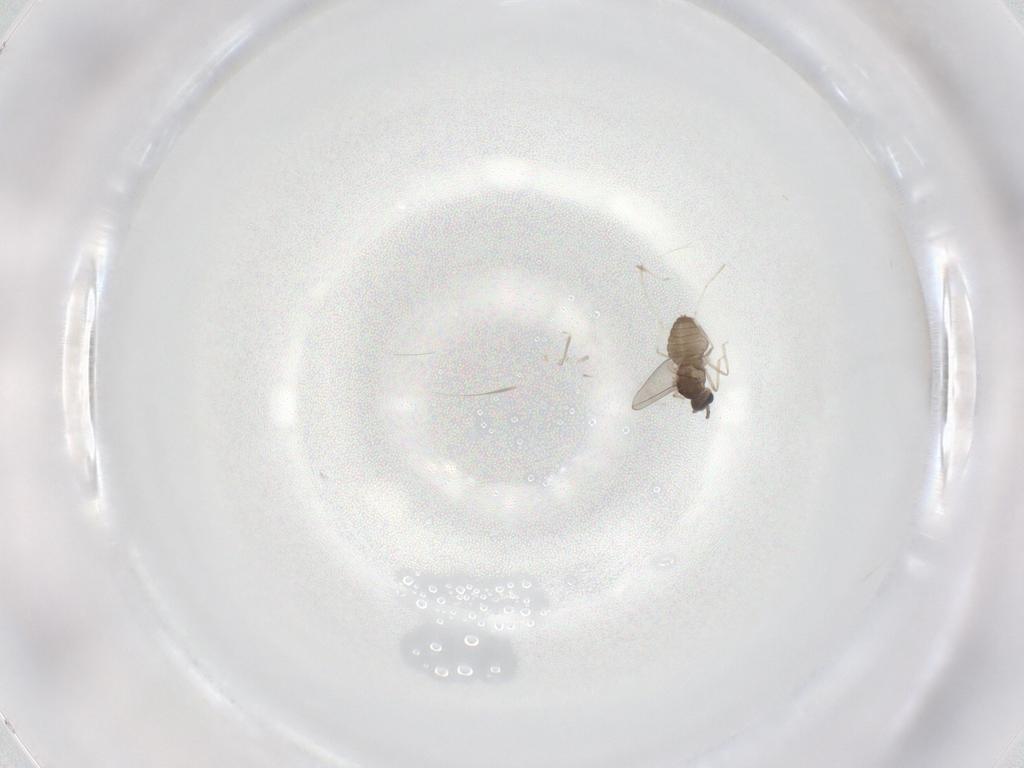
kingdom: Animalia
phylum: Arthropoda
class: Insecta
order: Diptera
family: Cecidomyiidae
